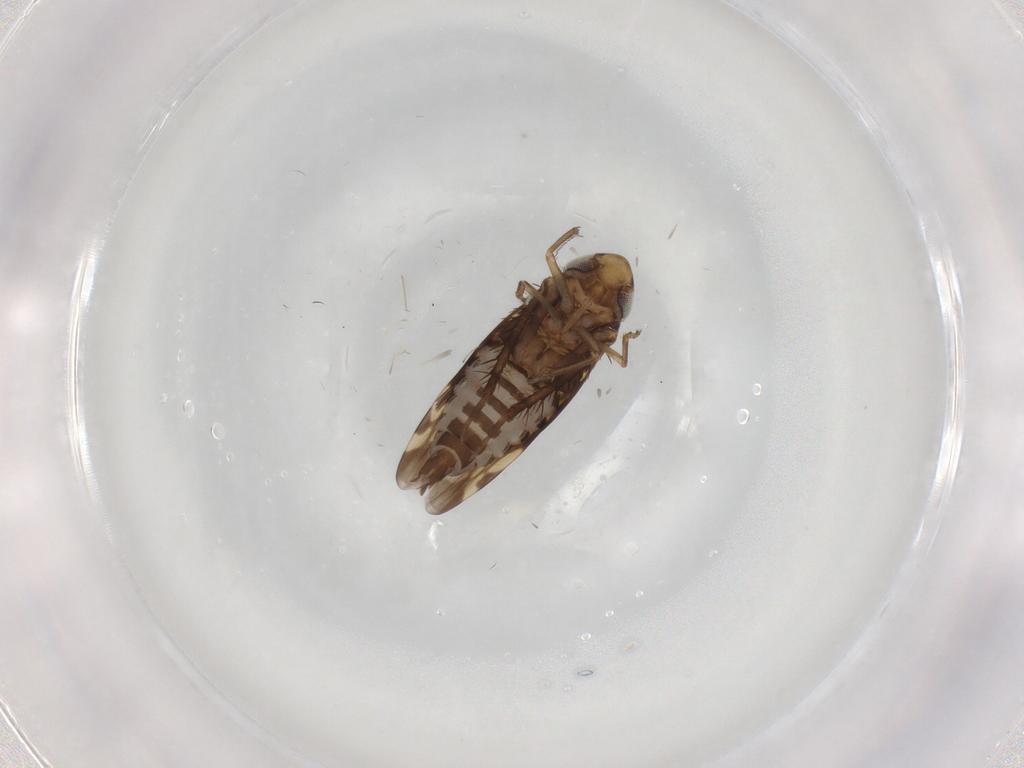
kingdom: Animalia
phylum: Arthropoda
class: Insecta
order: Hemiptera
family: Cicadellidae
